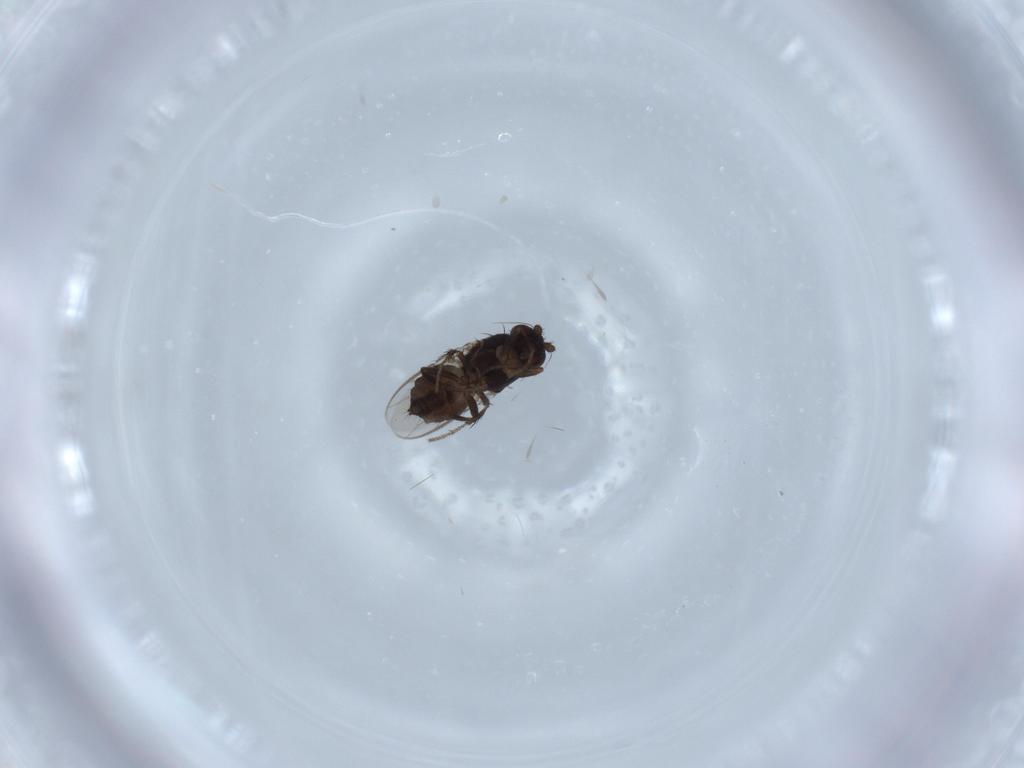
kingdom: Animalia
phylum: Arthropoda
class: Insecta
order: Diptera
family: Sphaeroceridae
